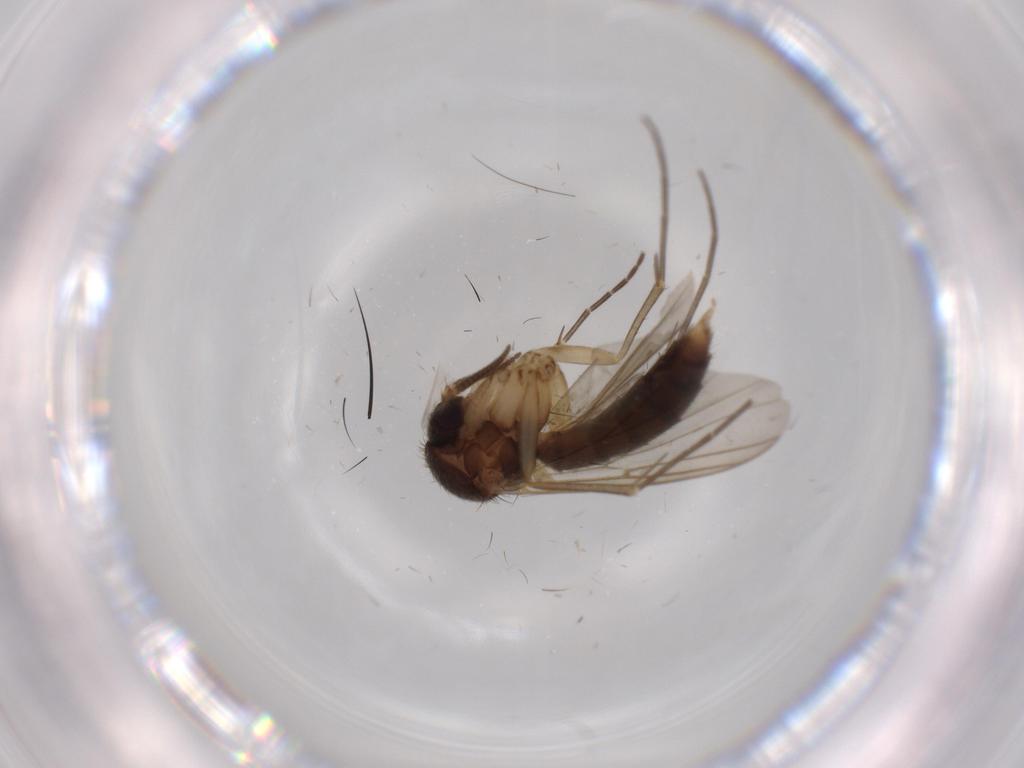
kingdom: Animalia
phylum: Arthropoda
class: Insecta
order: Diptera
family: Mycetophilidae
